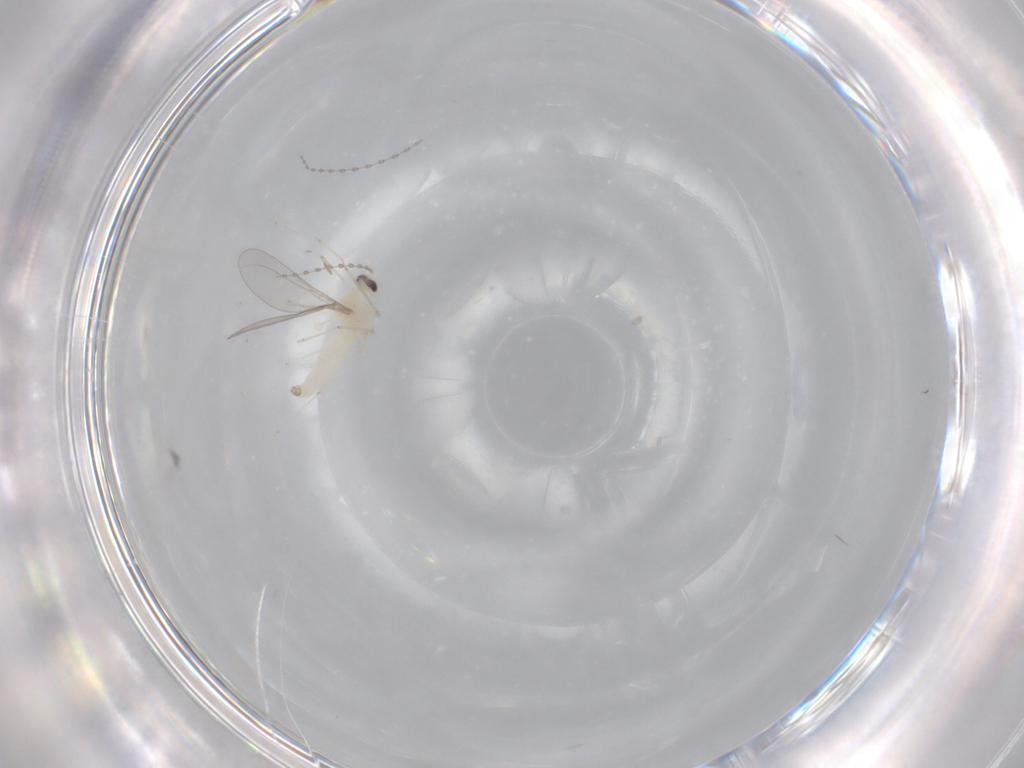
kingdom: Animalia
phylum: Arthropoda
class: Insecta
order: Diptera
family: Cecidomyiidae
